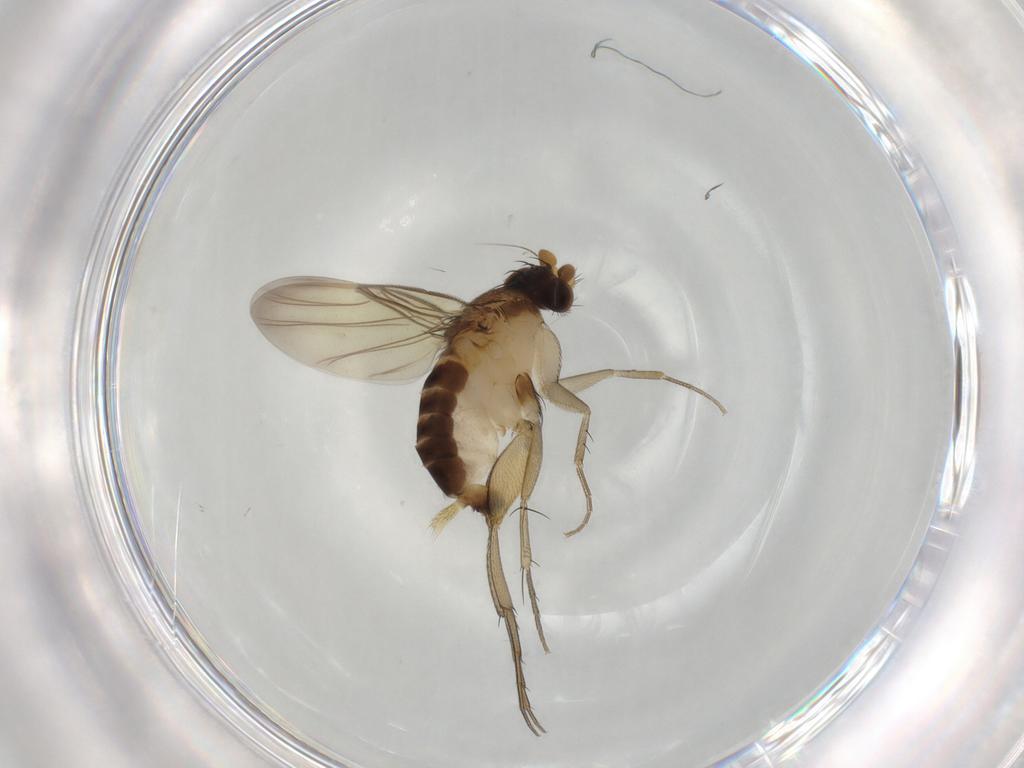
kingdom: Animalia
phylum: Arthropoda
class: Insecta
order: Diptera
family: Phoridae
